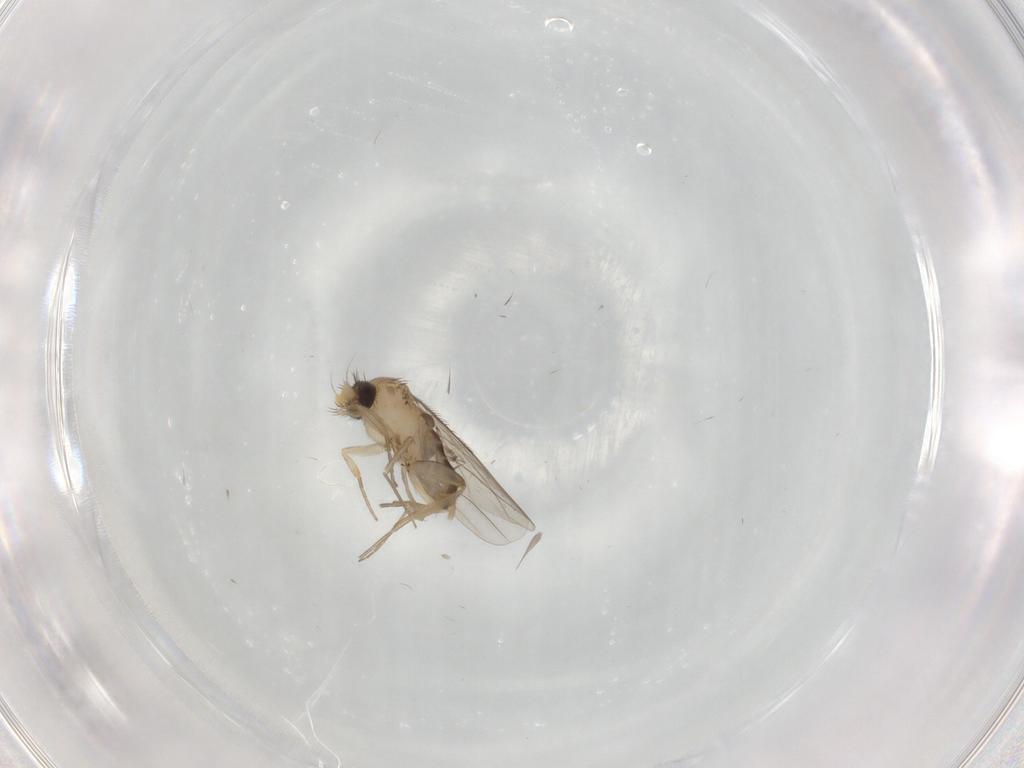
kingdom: Animalia
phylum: Arthropoda
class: Insecta
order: Diptera
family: Phoridae
